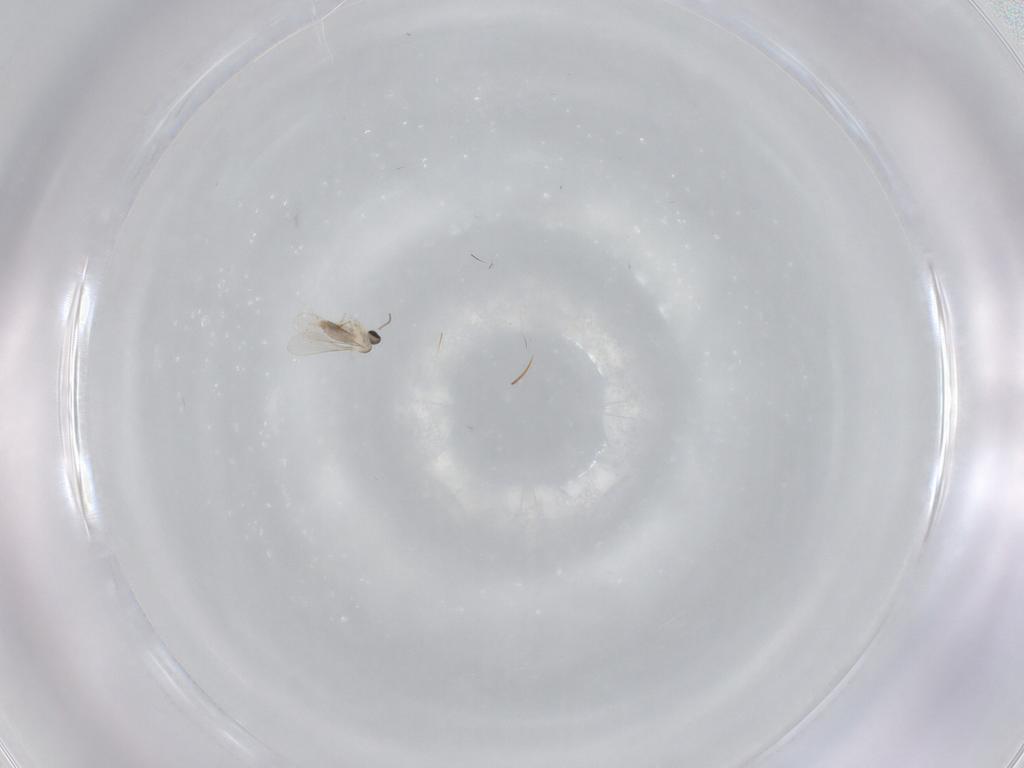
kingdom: Animalia
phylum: Arthropoda
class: Insecta
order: Diptera
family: Cecidomyiidae
